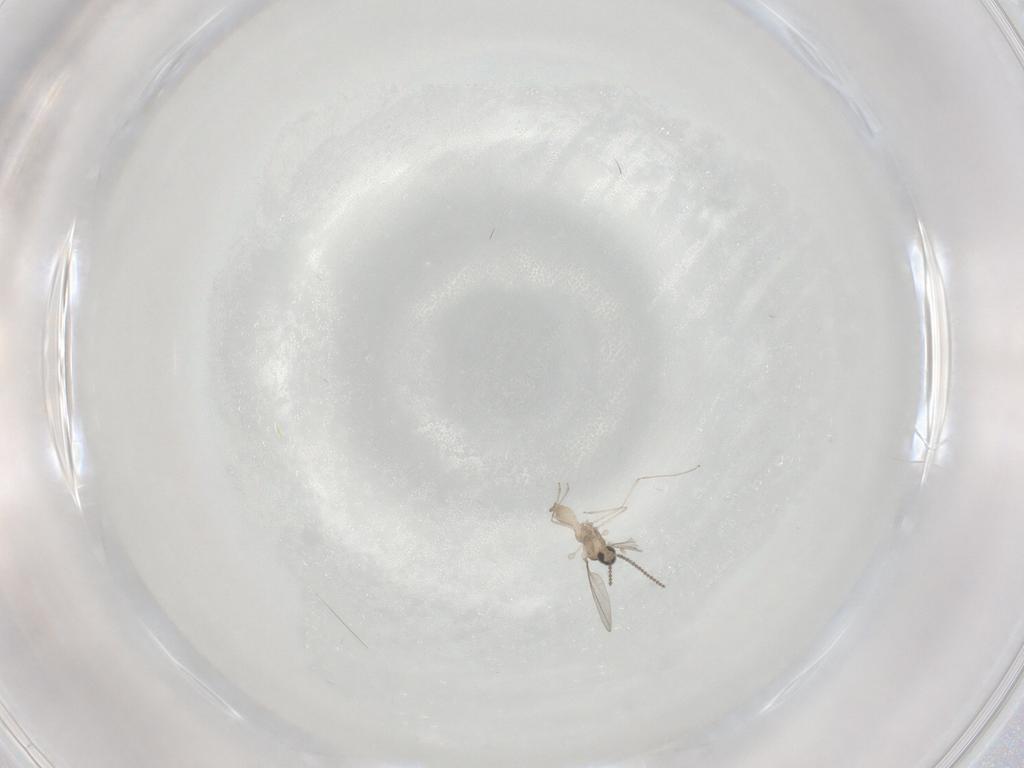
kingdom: Animalia
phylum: Arthropoda
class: Insecta
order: Diptera
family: Cecidomyiidae
